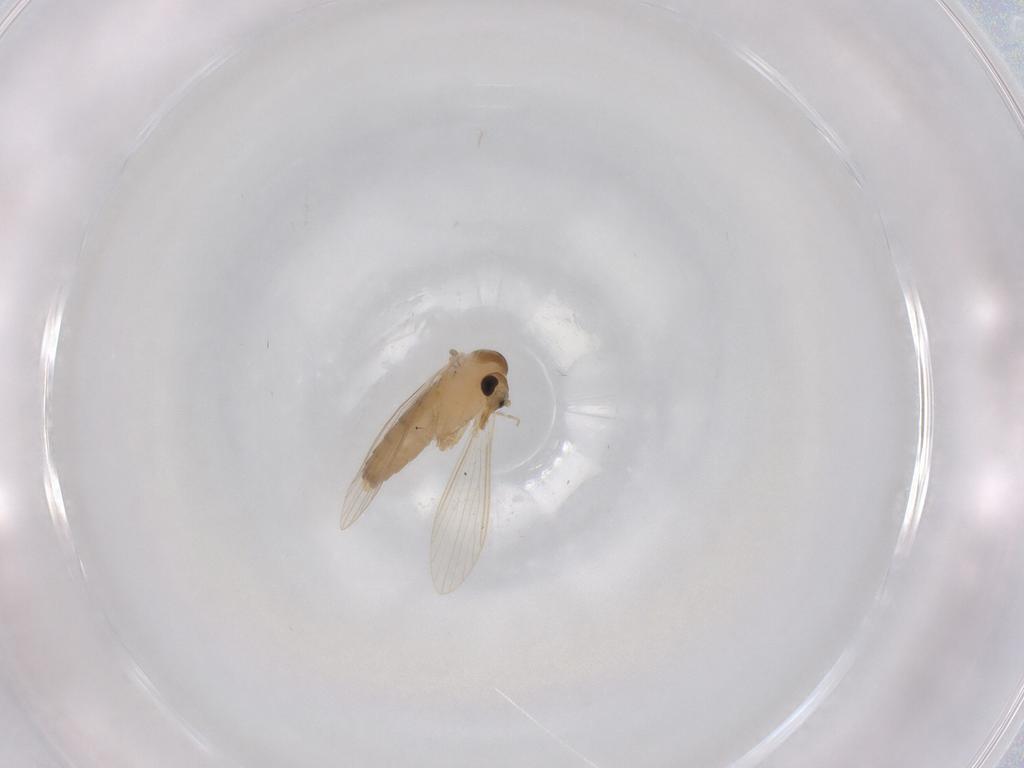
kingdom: Animalia
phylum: Arthropoda
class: Insecta
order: Diptera
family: Psychodidae
